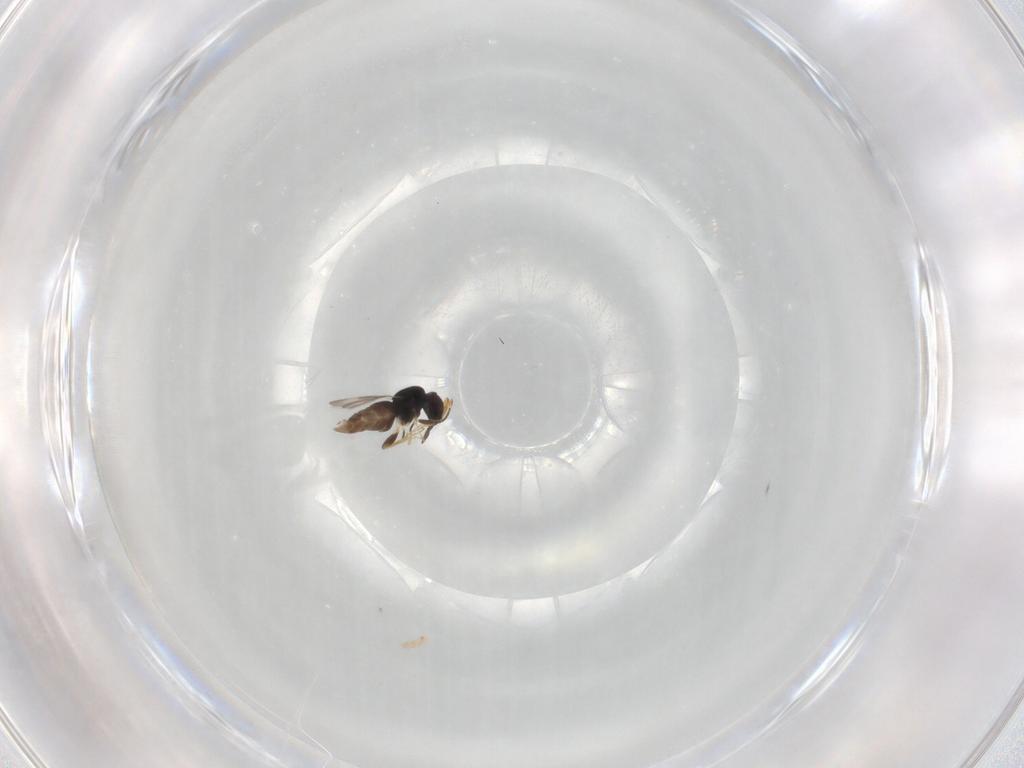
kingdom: Animalia
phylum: Arthropoda
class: Insecta
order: Hymenoptera
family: Ceraphronidae
